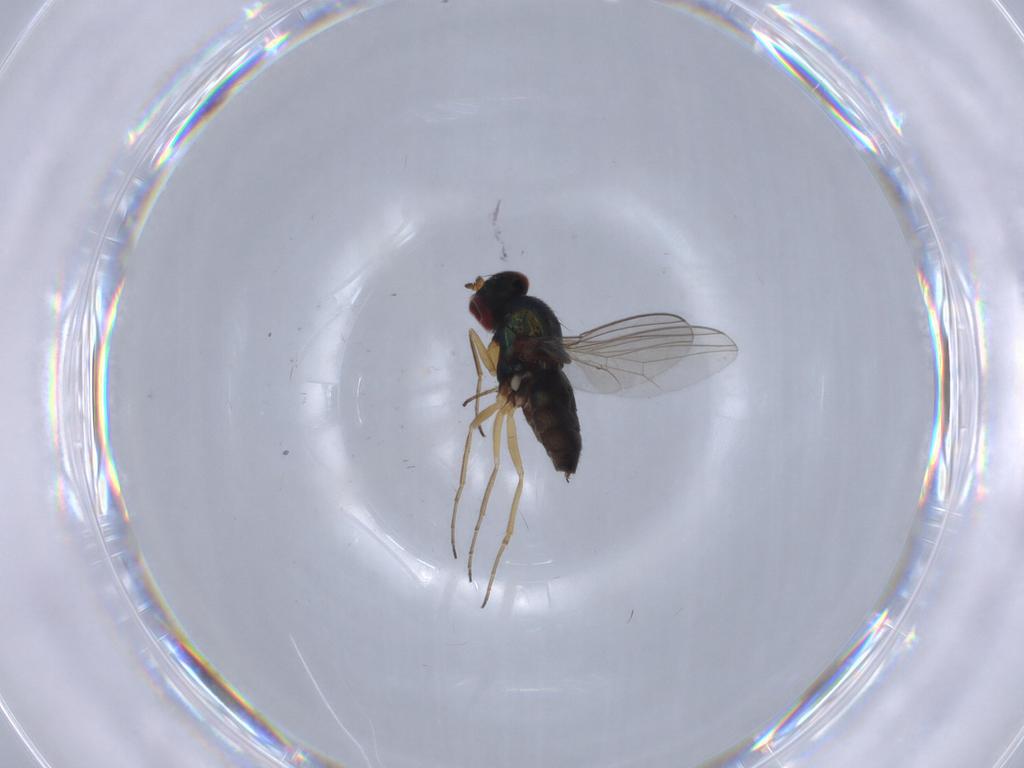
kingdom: Animalia
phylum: Arthropoda
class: Insecta
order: Diptera
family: Dolichopodidae
